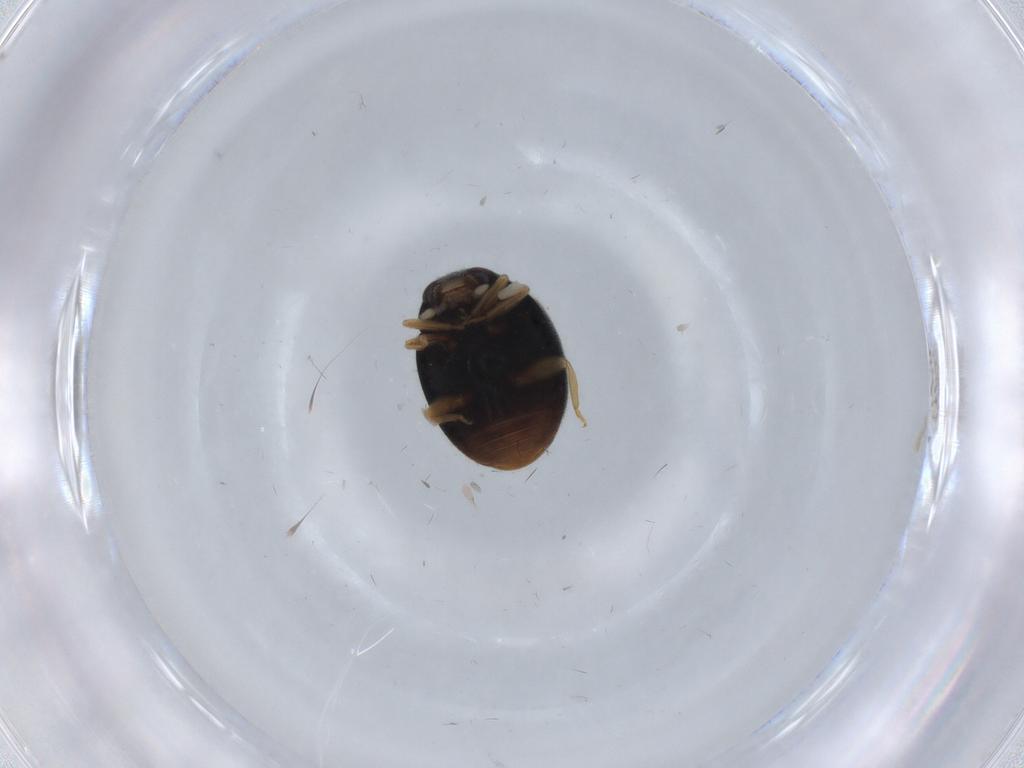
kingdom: Animalia
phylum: Arthropoda
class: Insecta
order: Coleoptera
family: Coccinellidae
